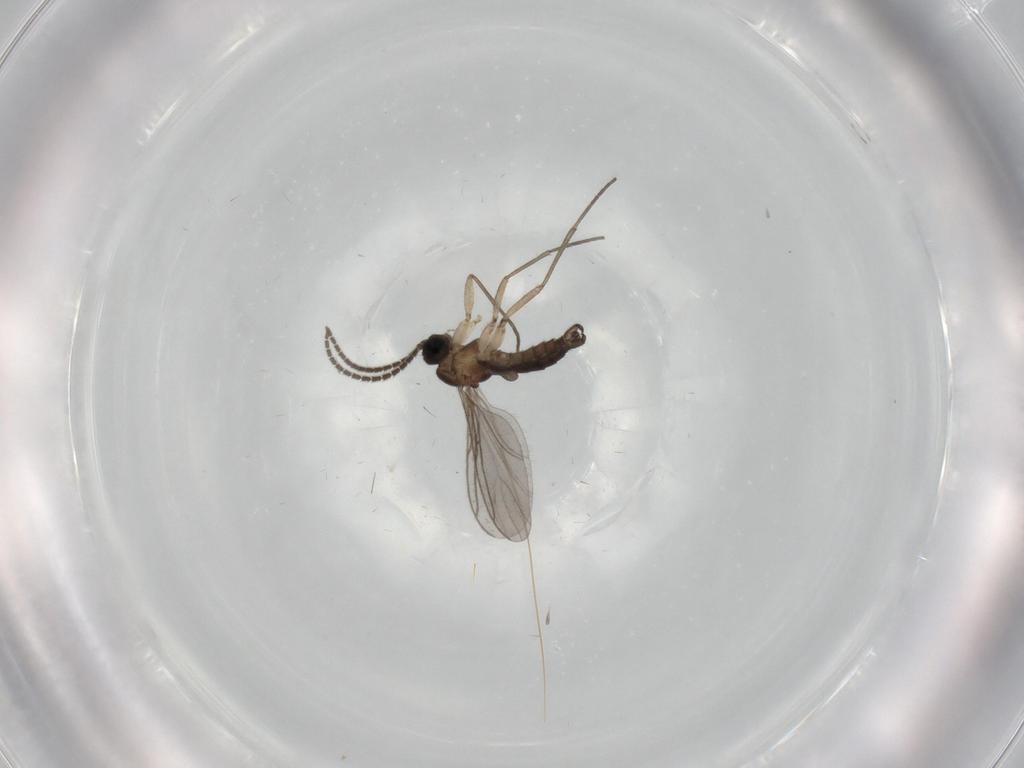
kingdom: Animalia
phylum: Arthropoda
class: Insecta
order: Diptera
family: Sciaridae
